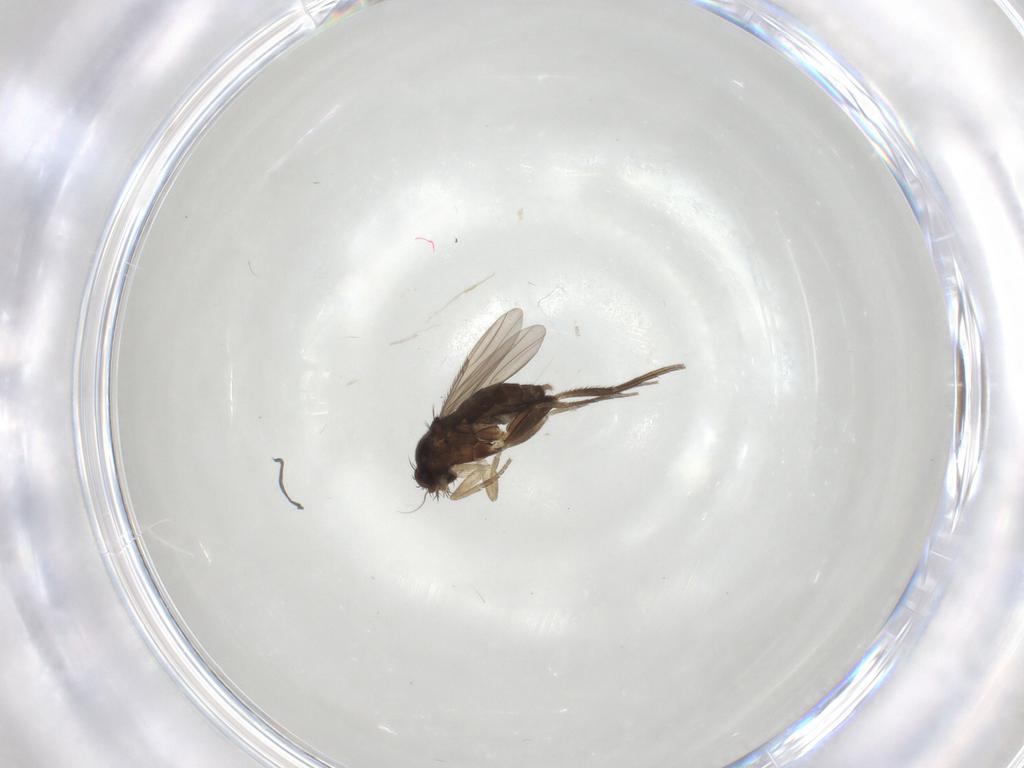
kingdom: Animalia
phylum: Arthropoda
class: Insecta
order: Diptera
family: Phoridae
